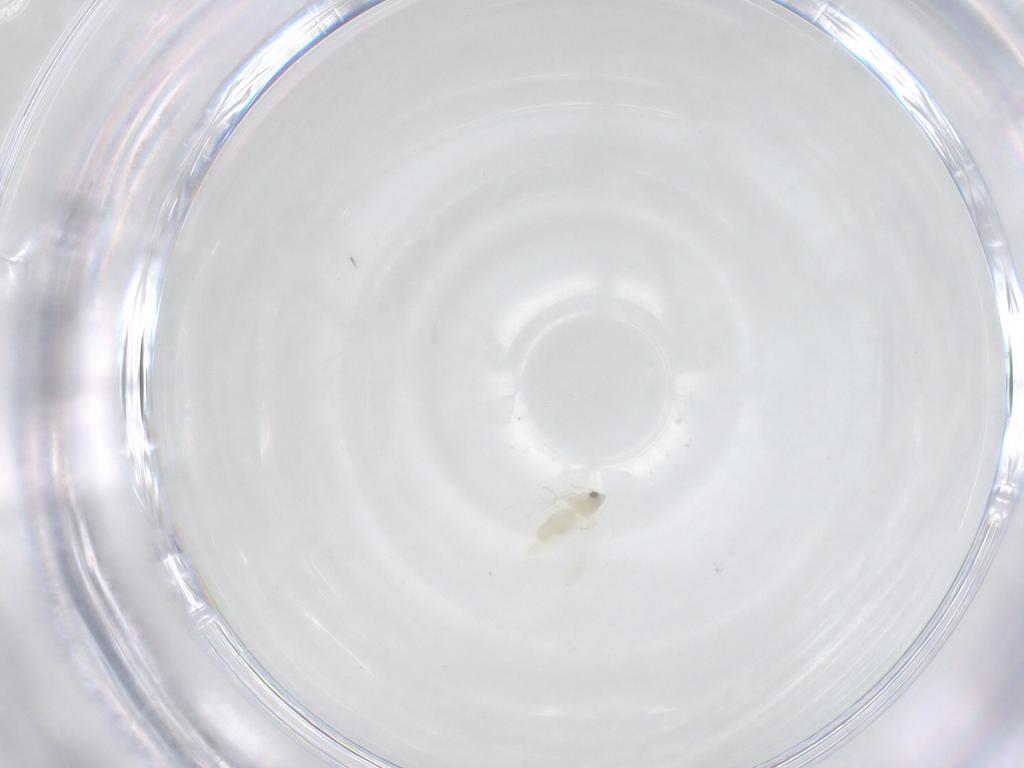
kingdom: Animalia
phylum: Arthropoda
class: Insecta
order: Hemiptera
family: Aleyrodidae
